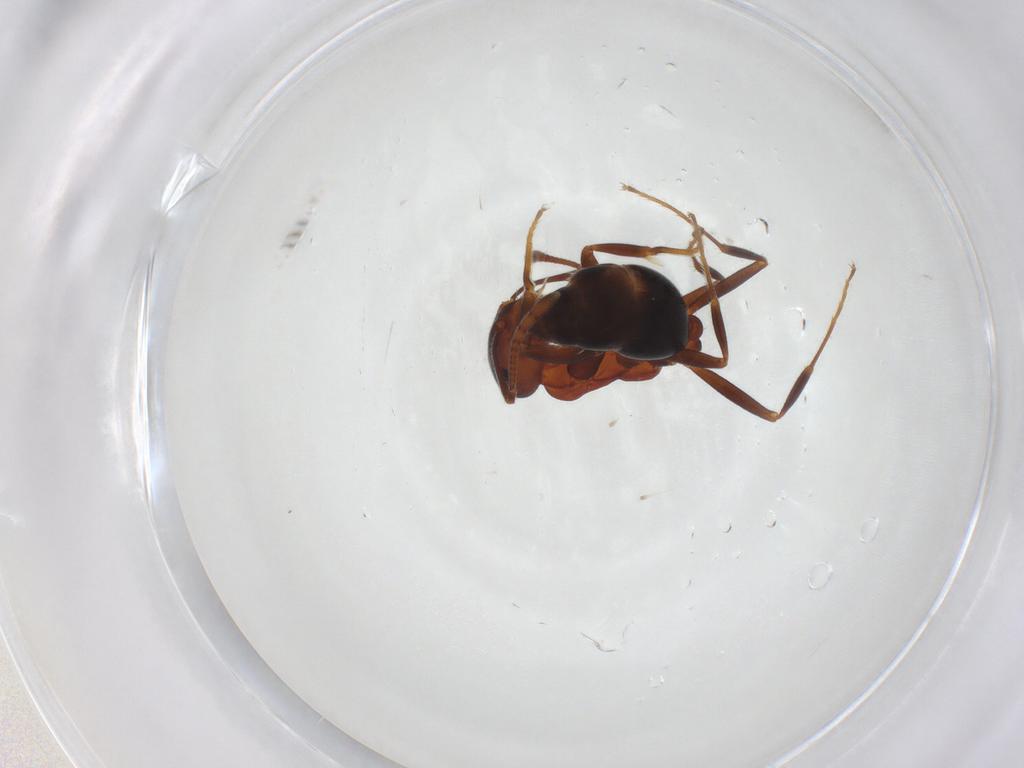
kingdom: Animalia
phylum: Arthropoda
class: Insecta
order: Hymenoptera
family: Formicidae
